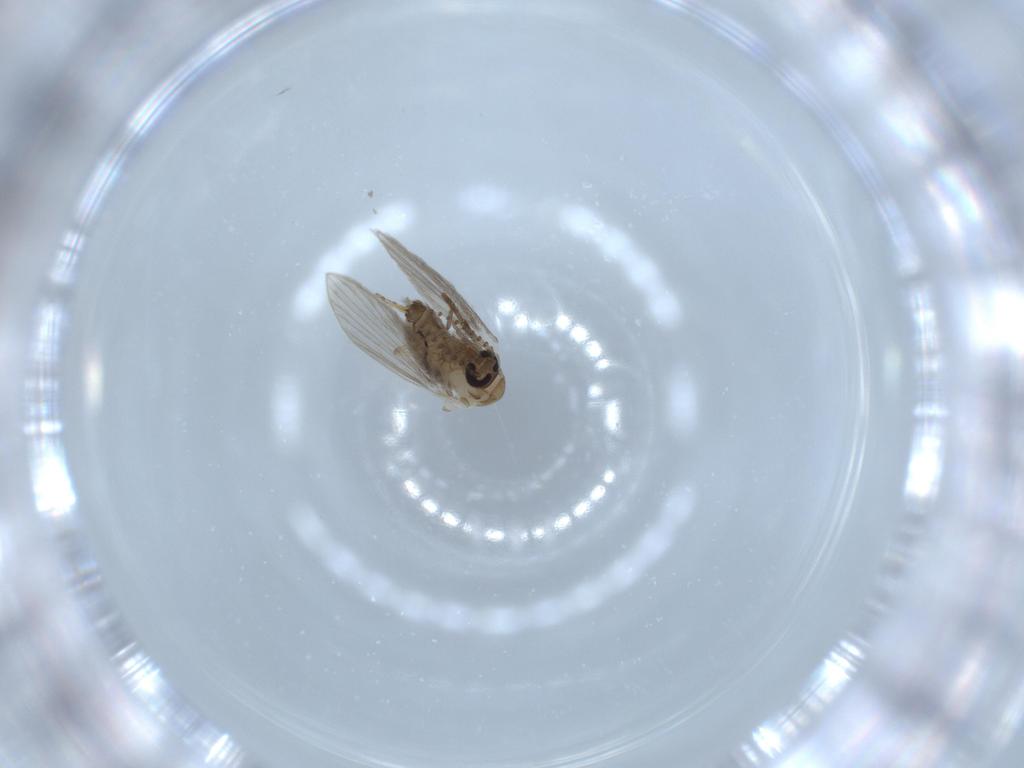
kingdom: Animalia
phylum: Arthropoda
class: Insecta
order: Diptera
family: Psychodidae
